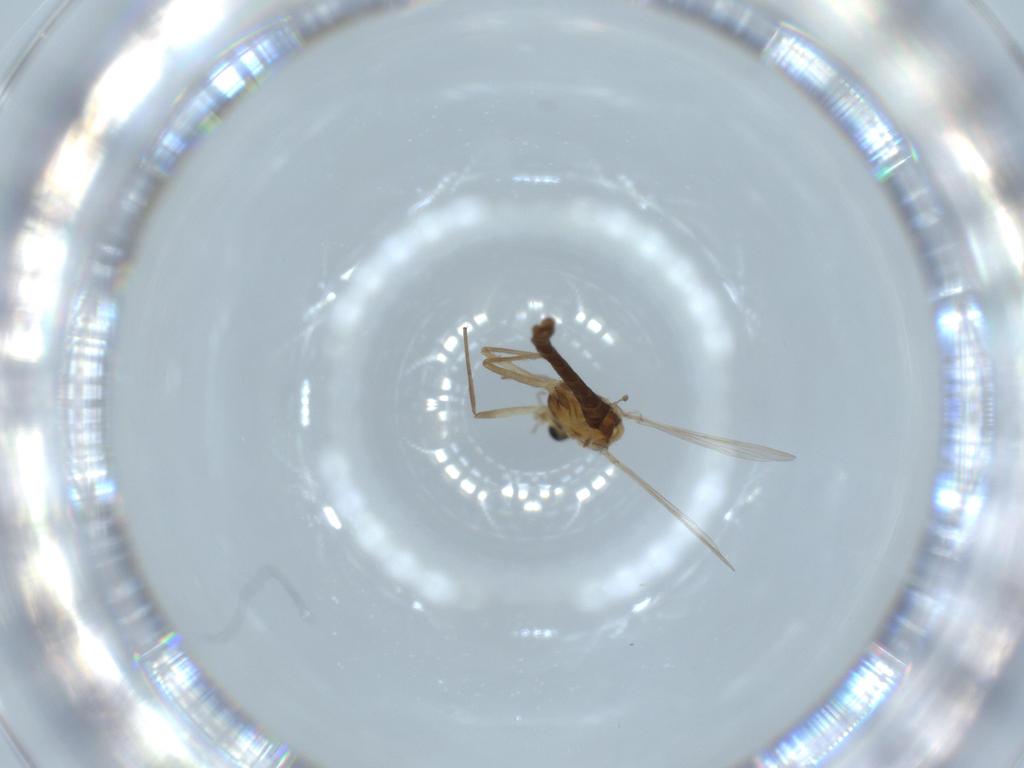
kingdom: Animalia
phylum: Arthropoda
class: Insecta
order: Diptera
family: Chironomidae
